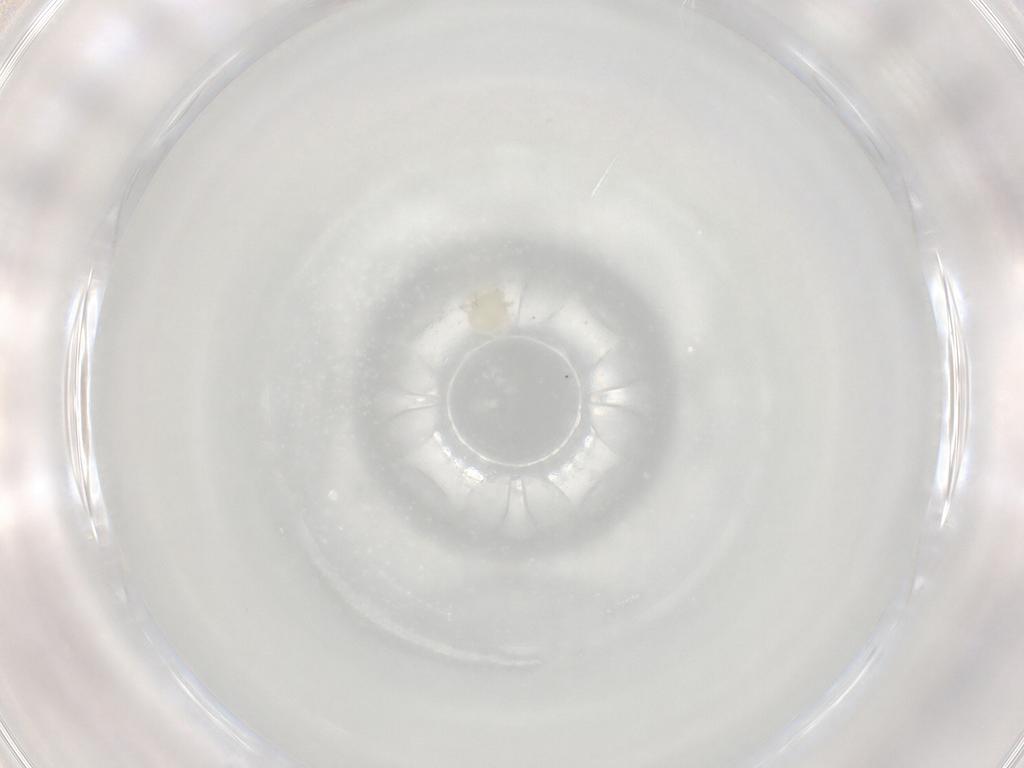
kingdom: Animalia
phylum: Arthropoda
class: Arachnida
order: Trombidiformes
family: Hydryphantidae
